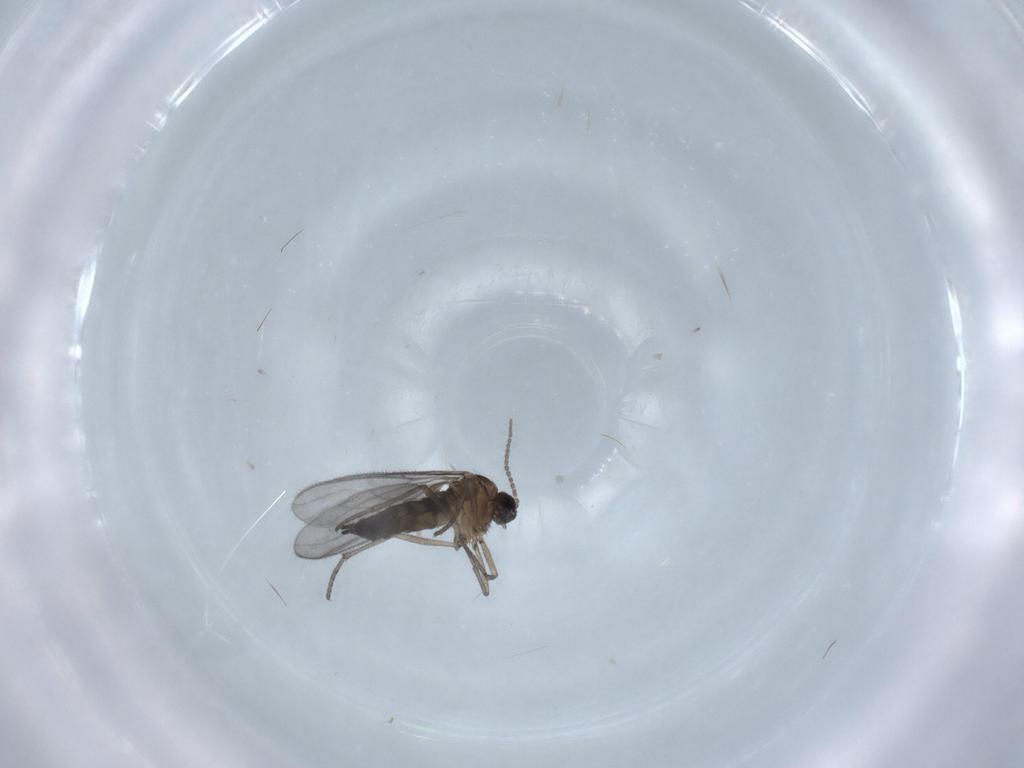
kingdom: Animalia
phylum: Arthropoda
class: Insecta
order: Diptera
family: Sciaridae
